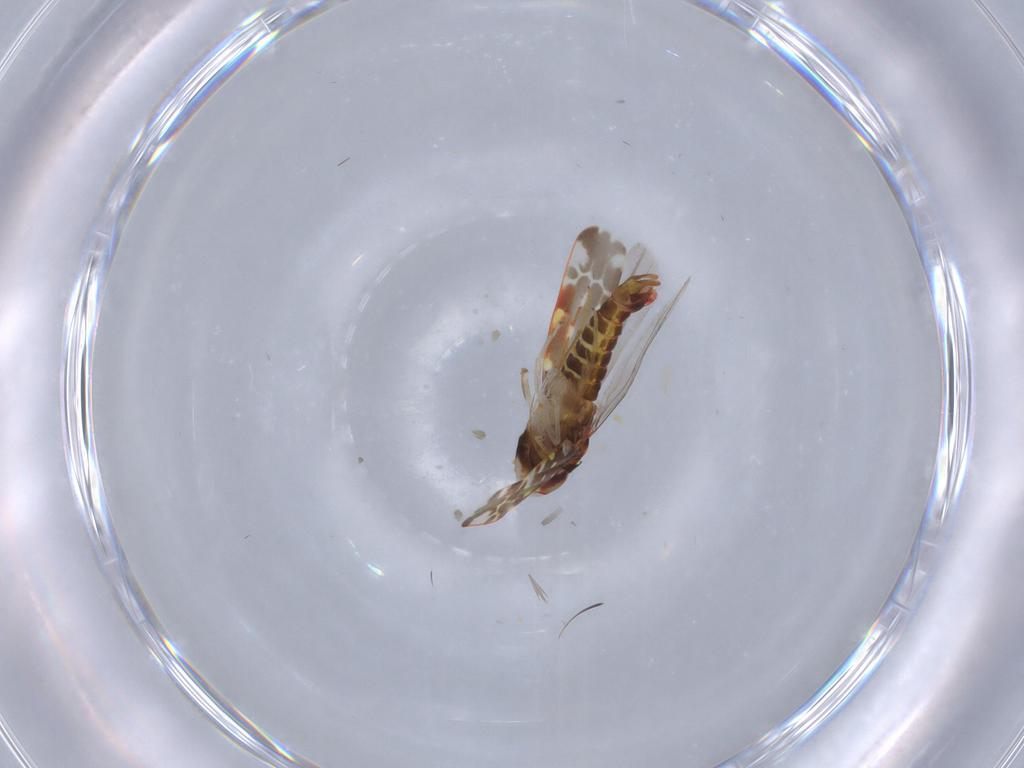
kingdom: Animalia
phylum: Arthropoda
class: Insecta
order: Hemiptera
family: Cicadellidae
